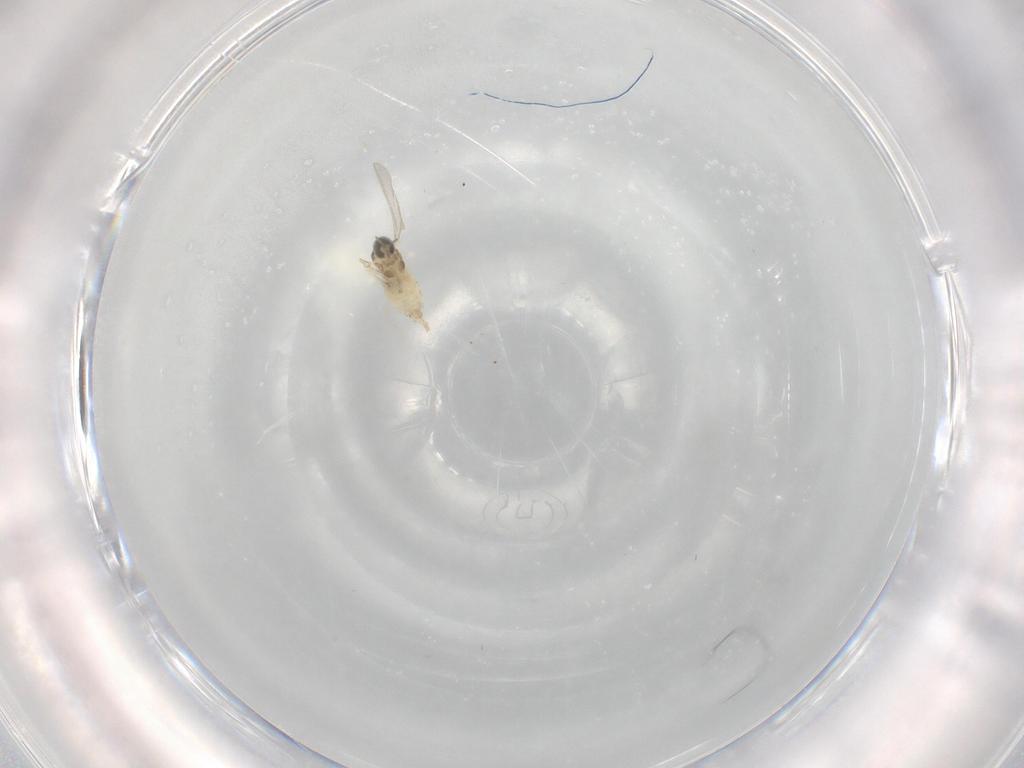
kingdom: Animalia
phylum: Arthropoda
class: Insecta
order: Diptera
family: Cecidomyiidae
